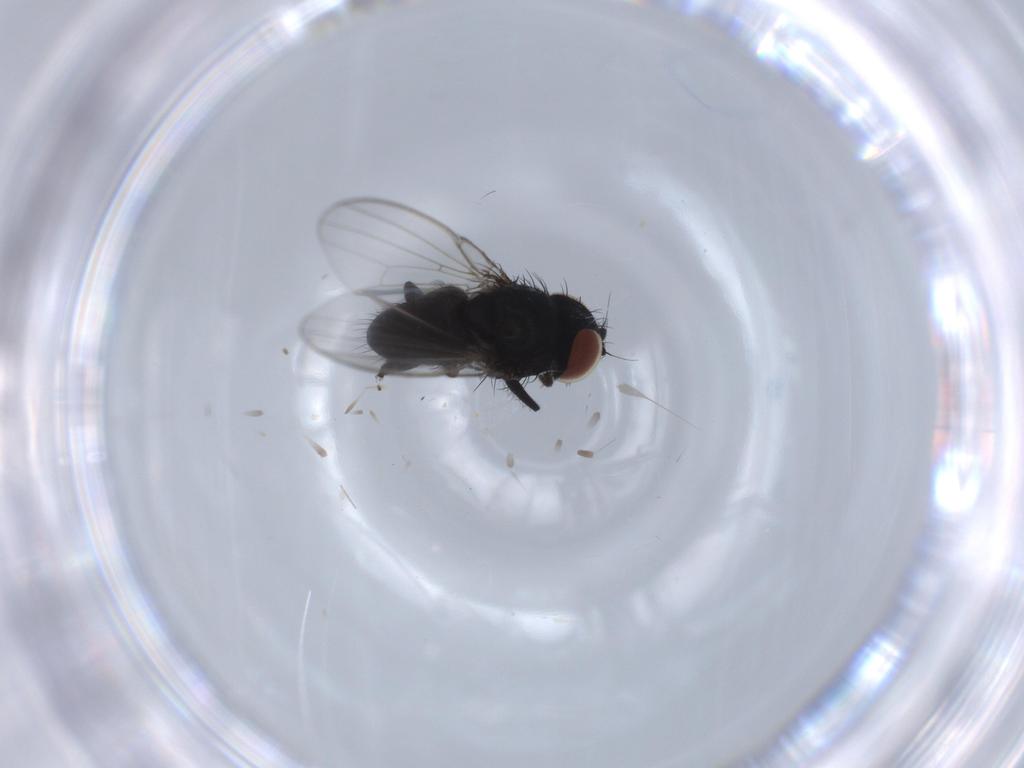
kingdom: Animalia
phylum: Arthropoda
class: Insecta
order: Diptera
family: Milichiidae
